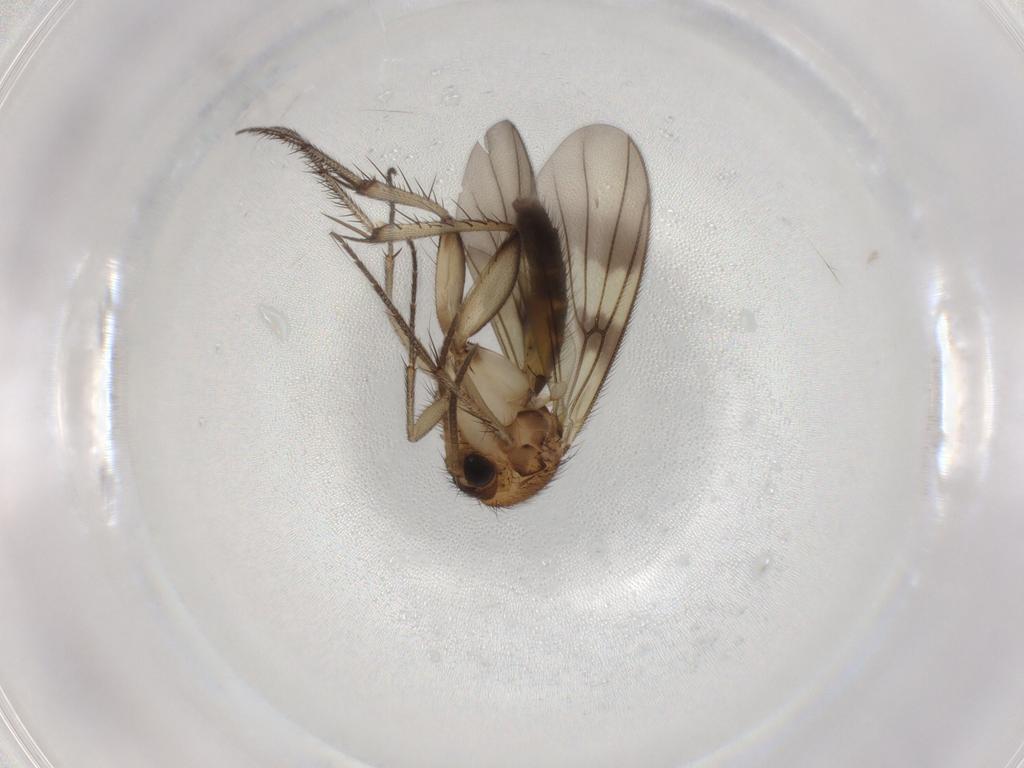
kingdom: Animalia
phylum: Arthropoda
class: Insecta
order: Diptera
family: Mycetophilidae
